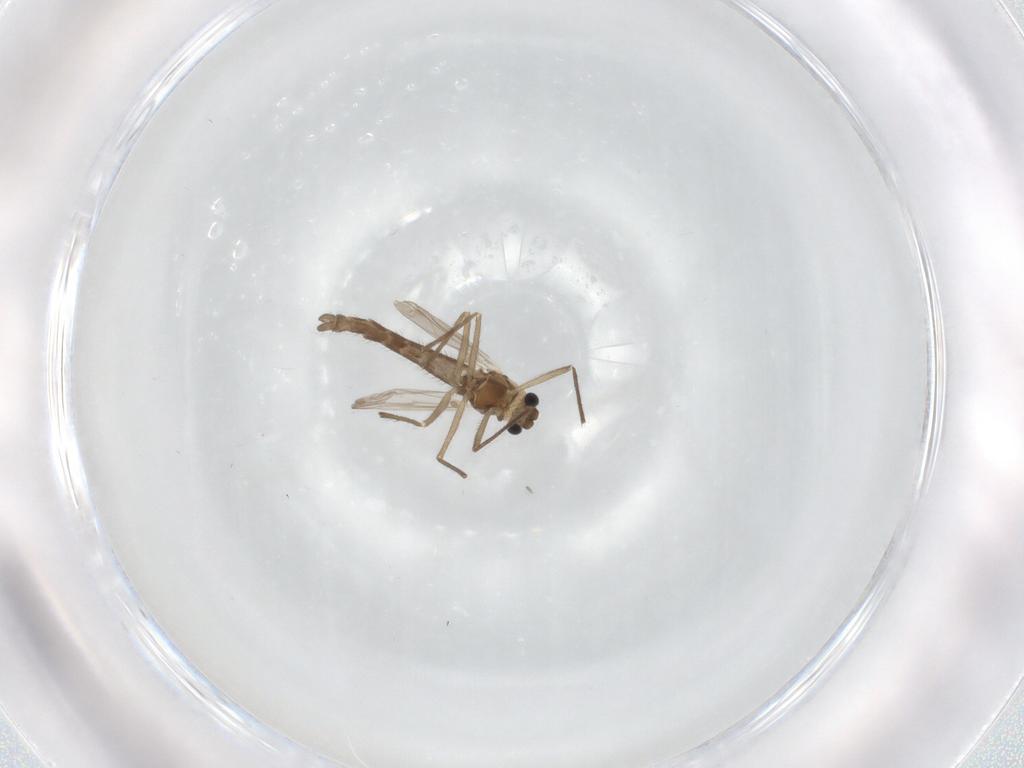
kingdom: Animalia
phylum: Arthropoda
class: Insecta
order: Diptera
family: Chironomidae
